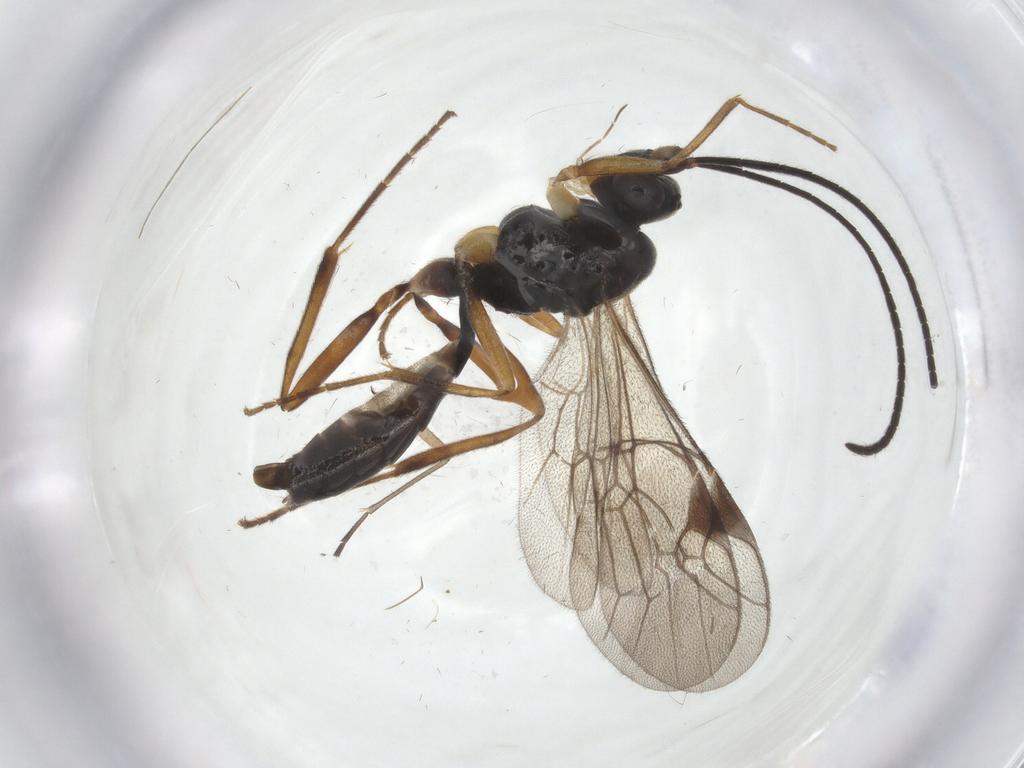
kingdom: Animalia
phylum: Arthropoda
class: Insecta
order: Hymenoptera
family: Ichneumonidae
